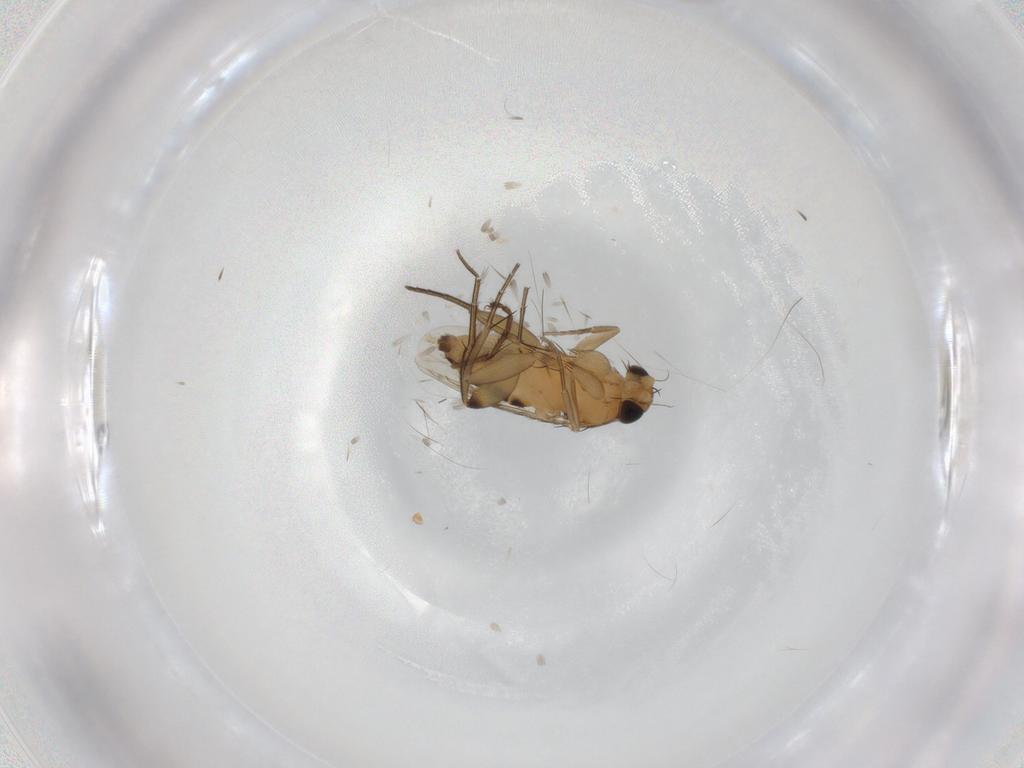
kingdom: Animalia
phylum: Arthropoda
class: Insecta
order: Diptera
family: Phoridae
